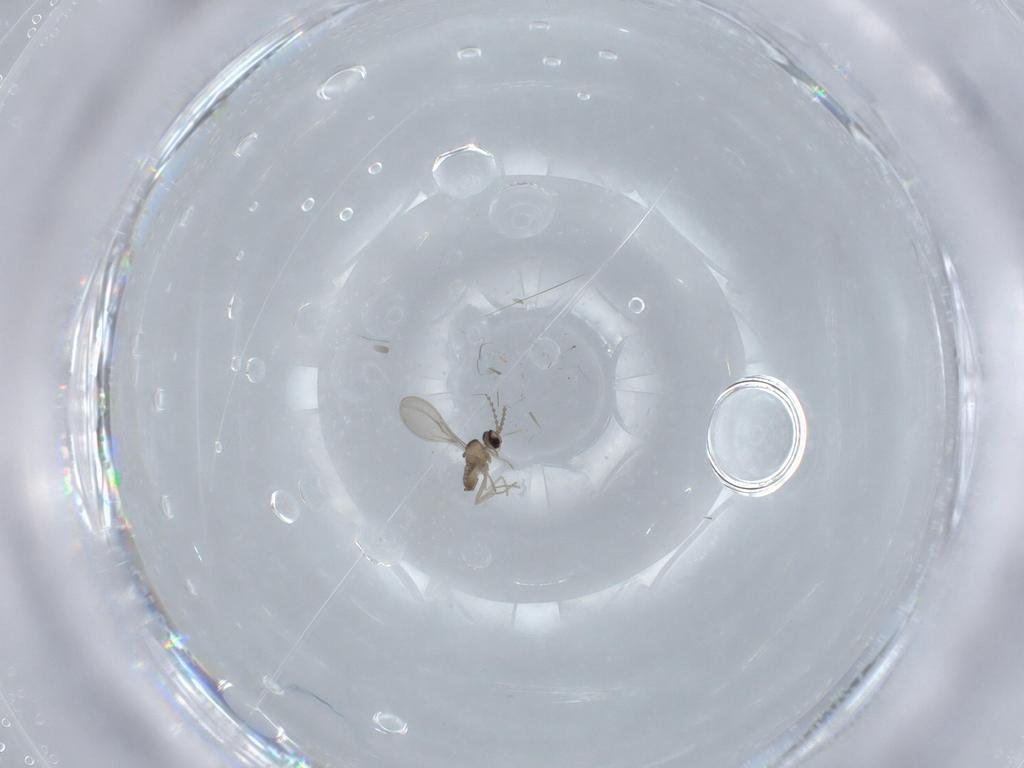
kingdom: Animalia
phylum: Arthropoda
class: Insecta
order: Diptera
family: Cecidomyiidae
